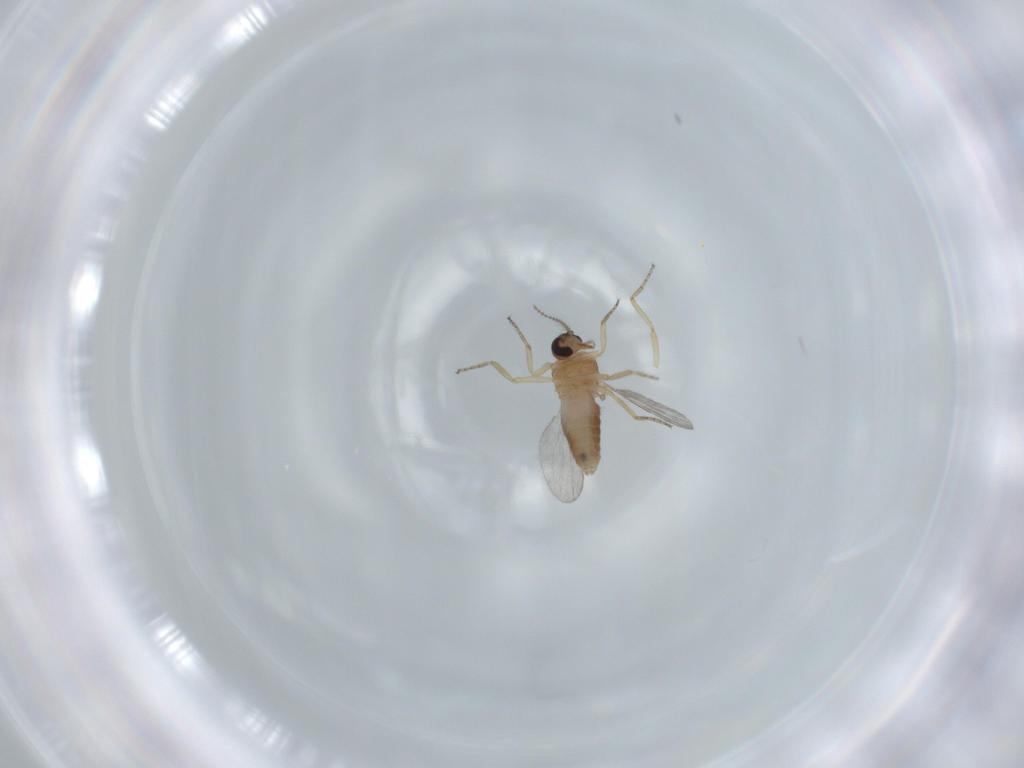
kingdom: Animalia
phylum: Arthropoda
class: Insecta
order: Diptera
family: Ceratopogonidae
